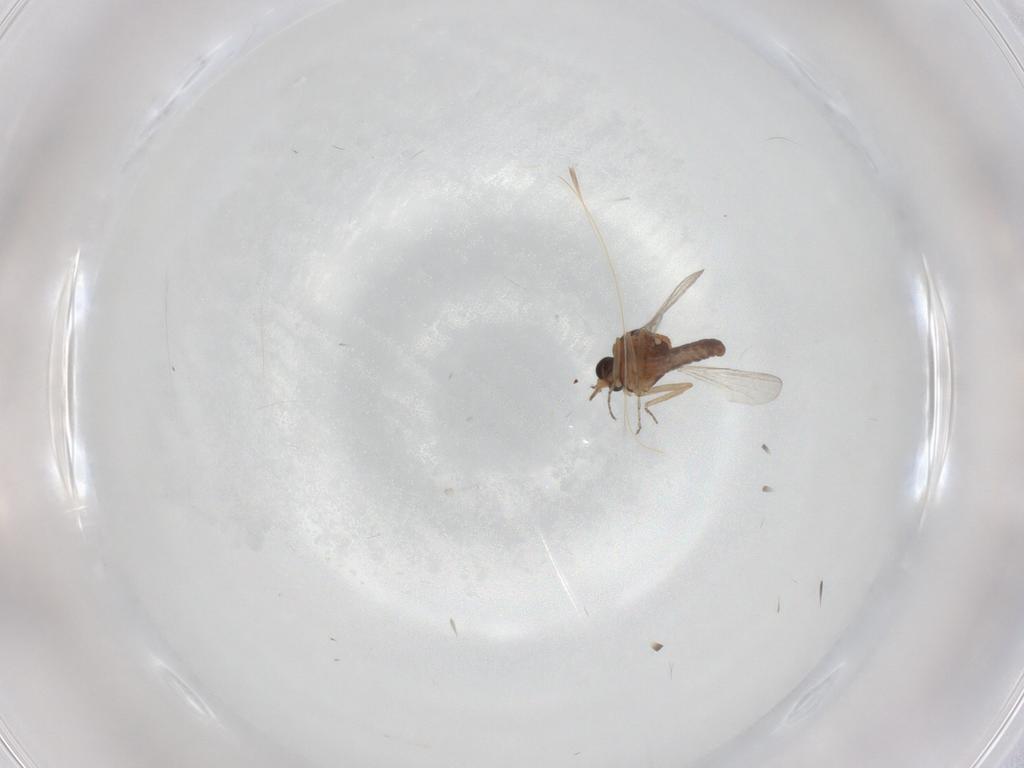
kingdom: Animalia
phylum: Arthropoda
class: Insecta
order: Diptera
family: Ceratopogonidae
